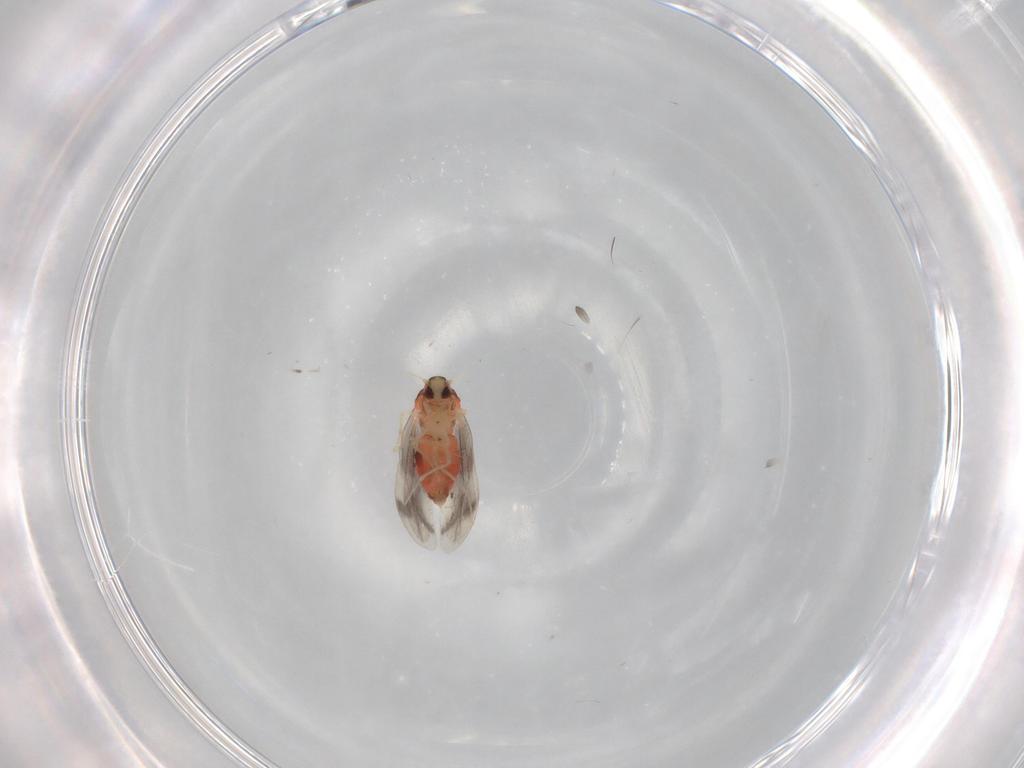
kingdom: Animalia
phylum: Arthropoda
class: Insecta
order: Hemiptera
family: Aleyrodidae
